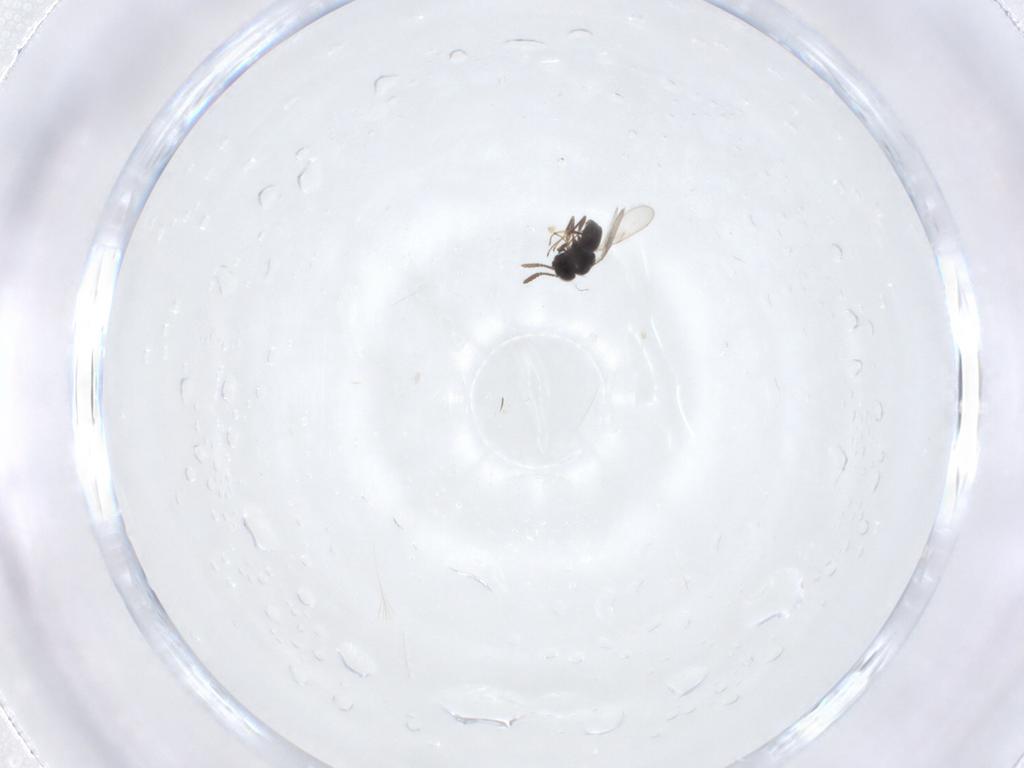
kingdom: Animalia
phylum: Arthropoda
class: Insecta
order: Hymenoptera
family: Scelionidae
